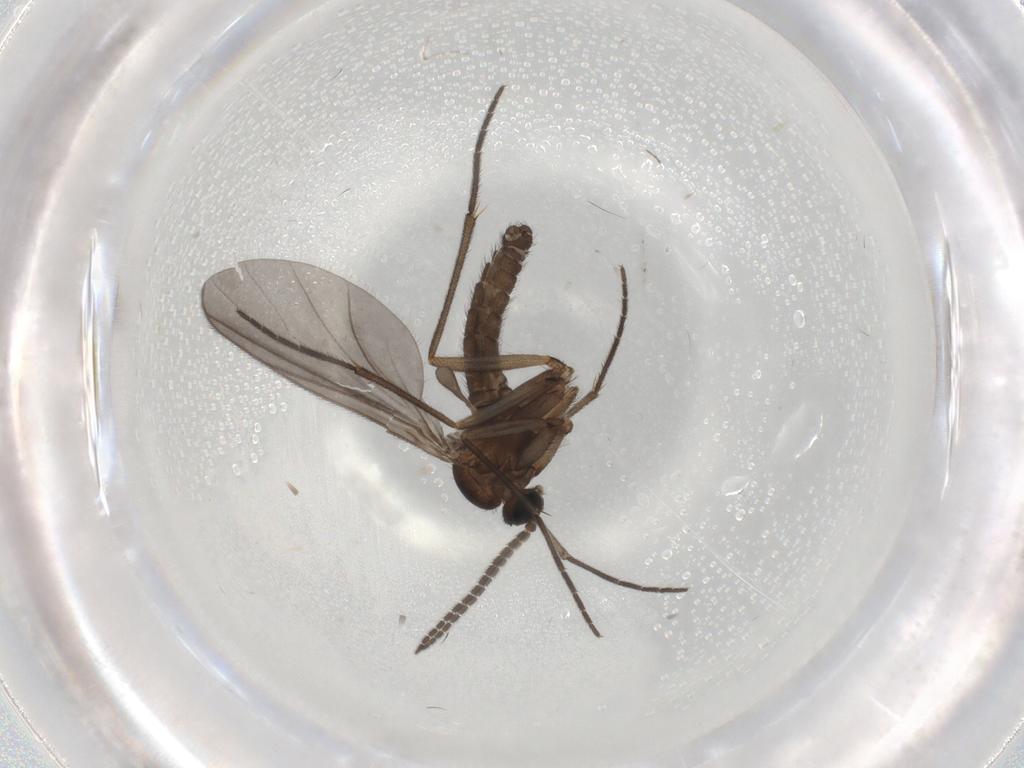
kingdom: Animalia
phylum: Arthropoda
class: Insecta
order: Diptera
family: Sciaridae
